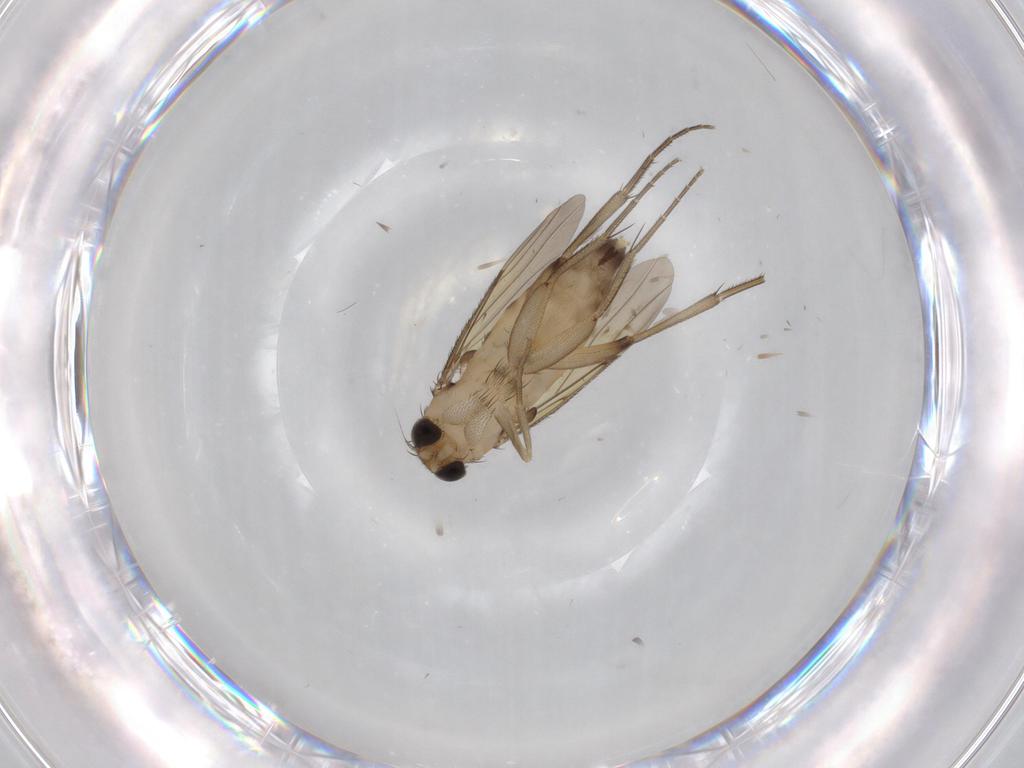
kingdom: Animalia
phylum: Arthropoda
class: Insecta
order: Diptera
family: Phoridae
